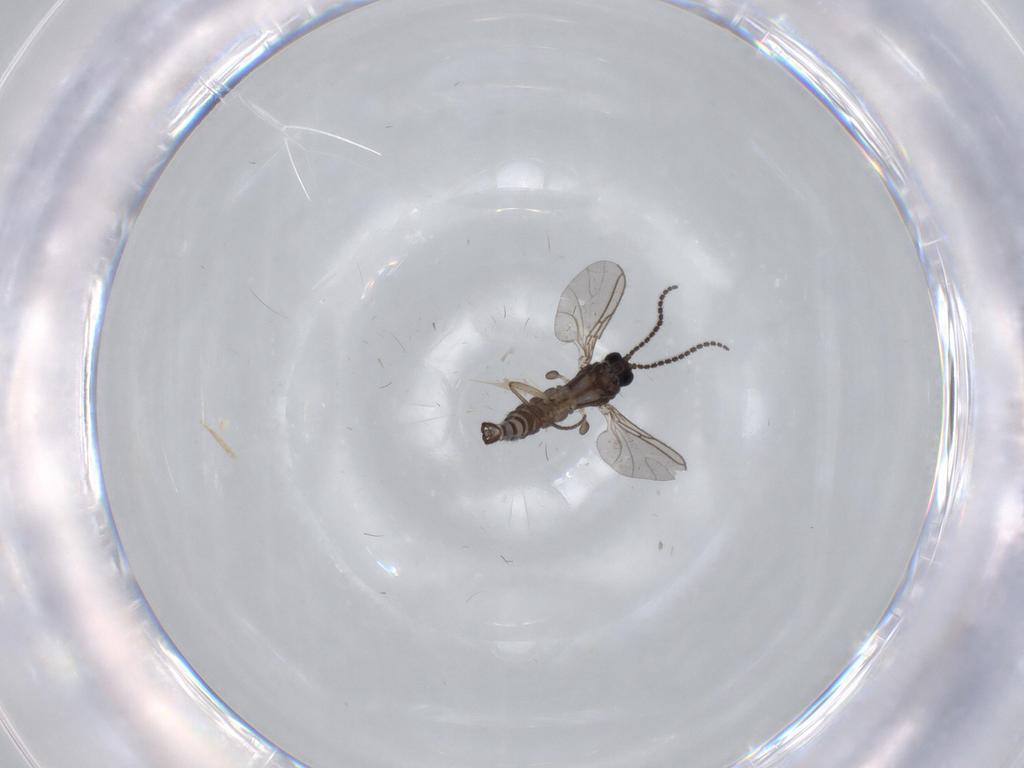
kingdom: Animalia
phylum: Arthropoda
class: Insecta
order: Diptera
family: Sciaridae
